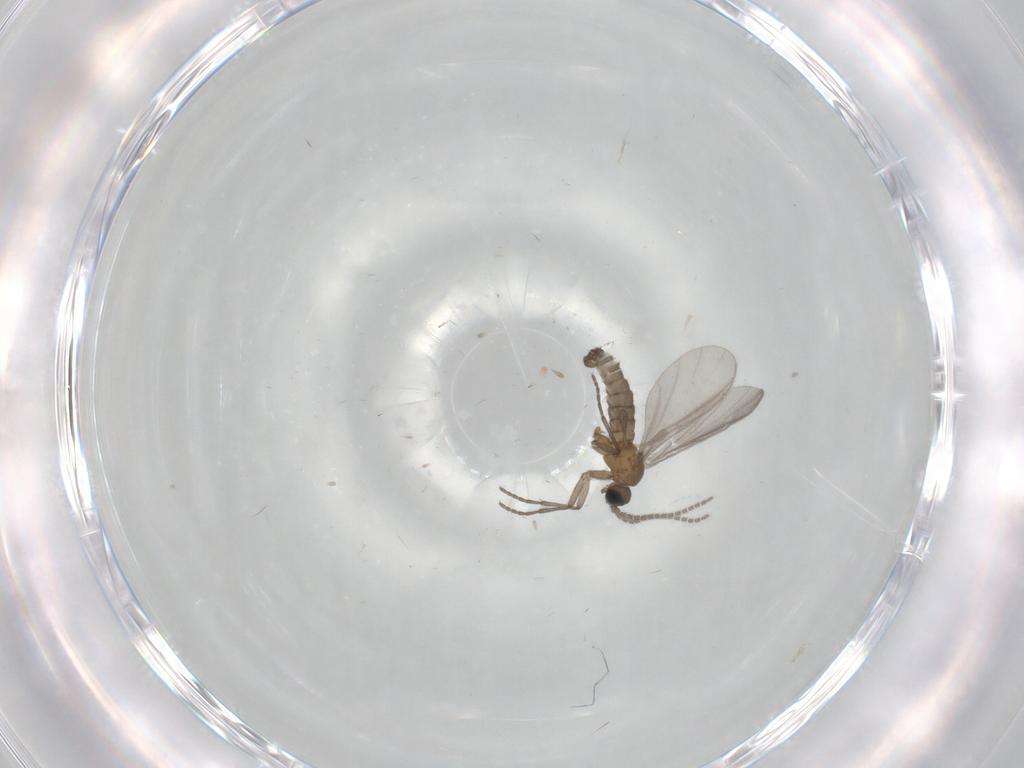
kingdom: Animalia
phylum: Arthropoda
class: Insecta
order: Diptera
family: Sciaridae
